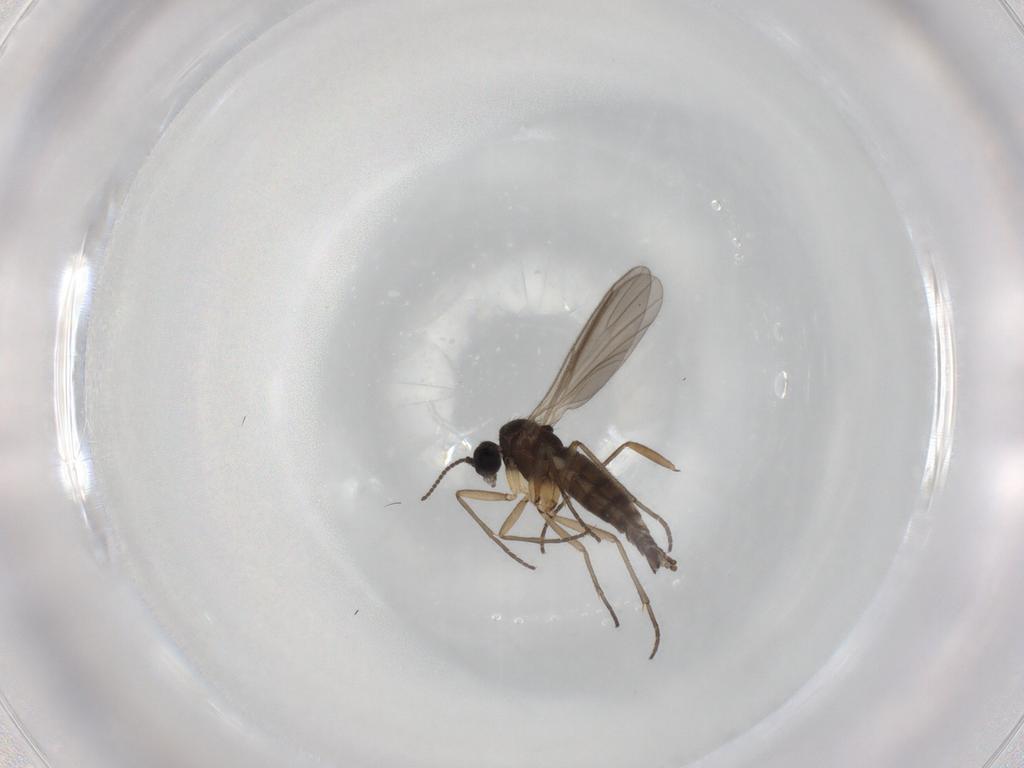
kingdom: Animalia
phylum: Arthropoda
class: Insecta
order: Diptera
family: Sciaridae
